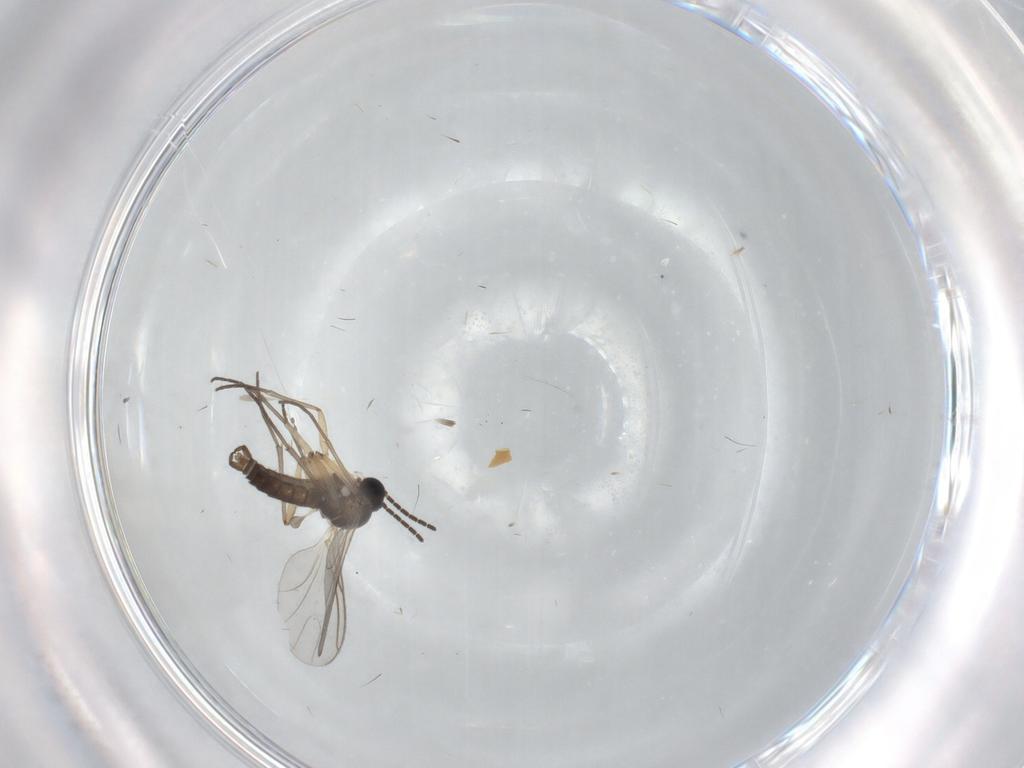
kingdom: Animalia
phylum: Arthropoda
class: Insecta
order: Diptera
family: Sciaridae
